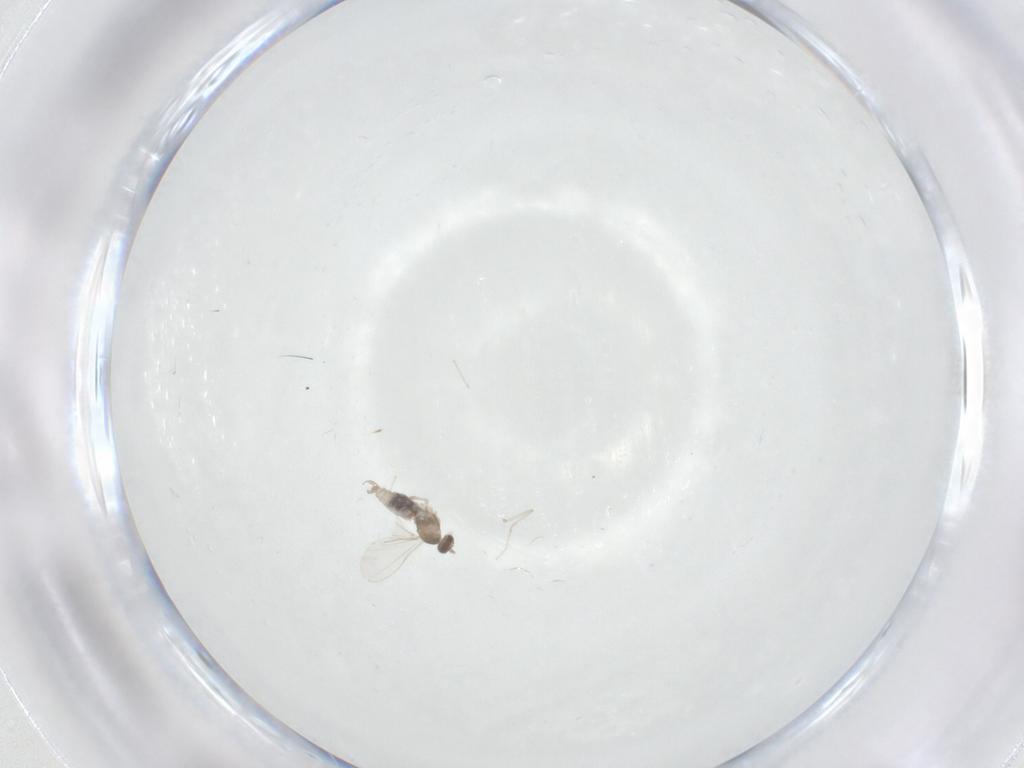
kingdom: Animalia
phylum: Arthropoda
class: Insecta
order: Diptera
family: Cecidomyiidae
